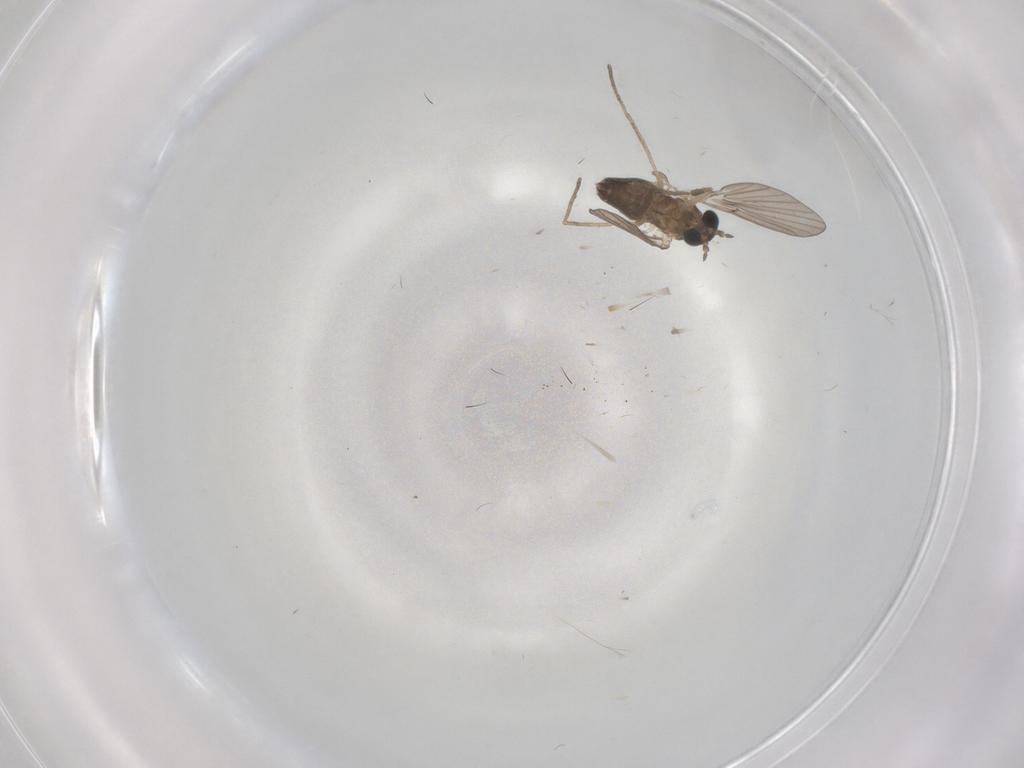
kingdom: Animalia
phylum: Arthropoda
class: Insecta
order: Diptera
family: Cecidomyiidae
